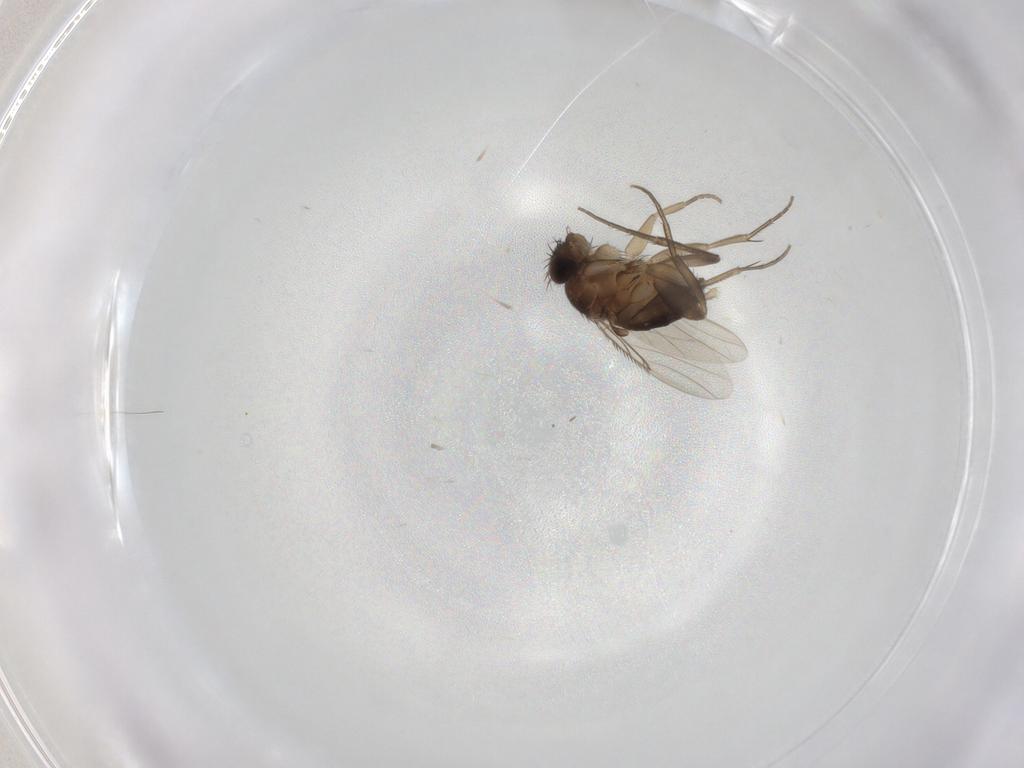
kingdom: Animalia
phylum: Arthropoda
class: Insecta
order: Diptera
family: Phoridae
